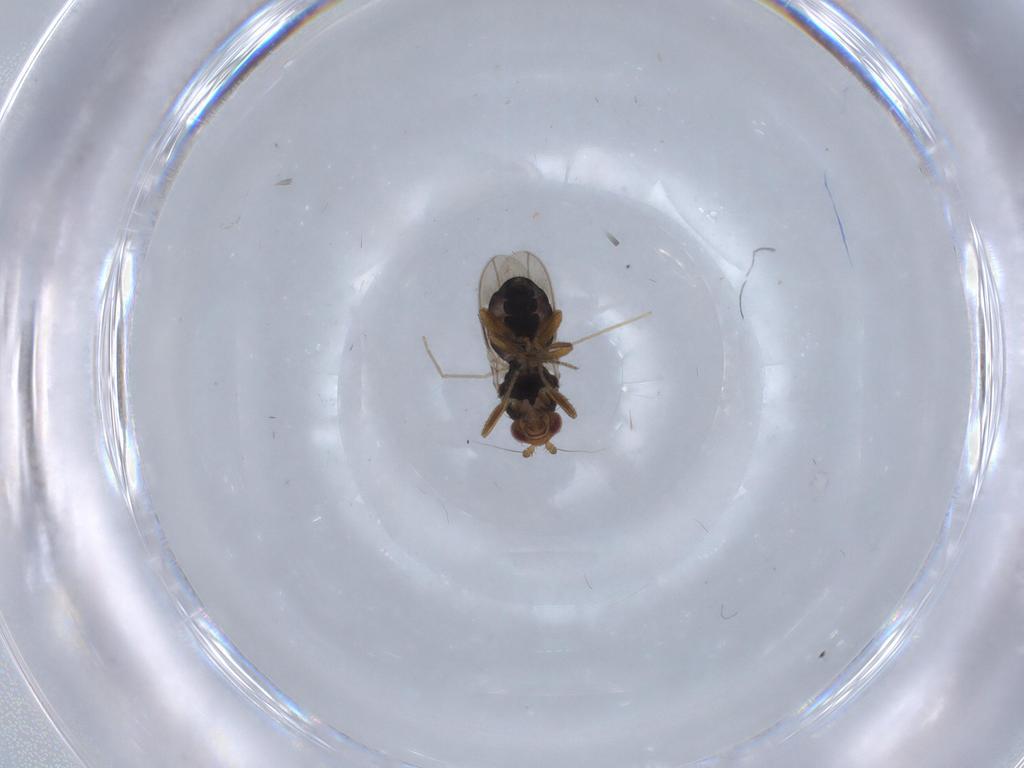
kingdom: Animalia
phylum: Arthropoda
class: Insecta
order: Diptera
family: Sphaeroceridae
